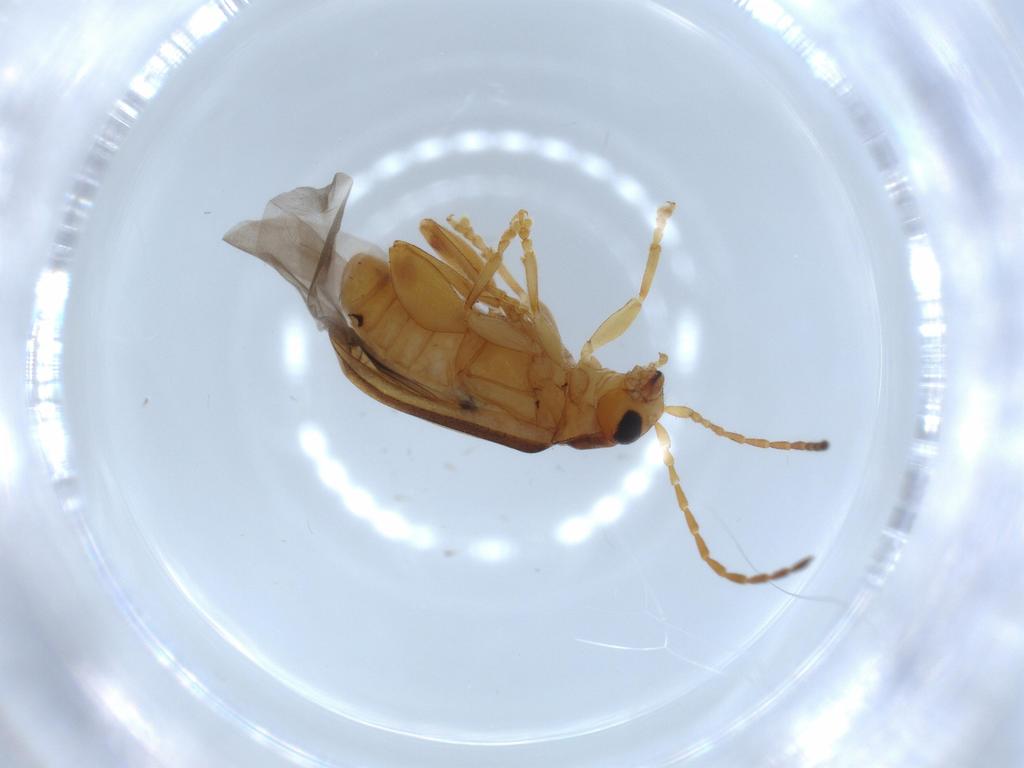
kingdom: Animalia
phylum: Arthropoda
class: Insecta
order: Coleoptera
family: Chrysomelidae
